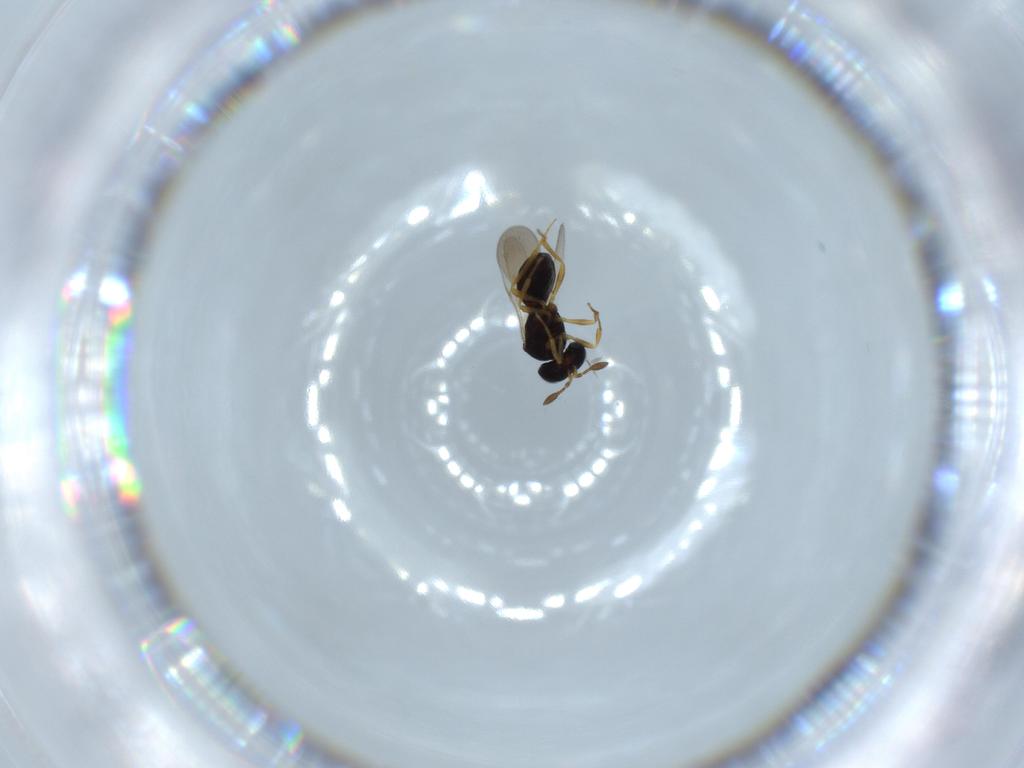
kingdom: Animalia
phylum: Arthropoda
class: Insecta
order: Hymenoptera
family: Scelionidae
